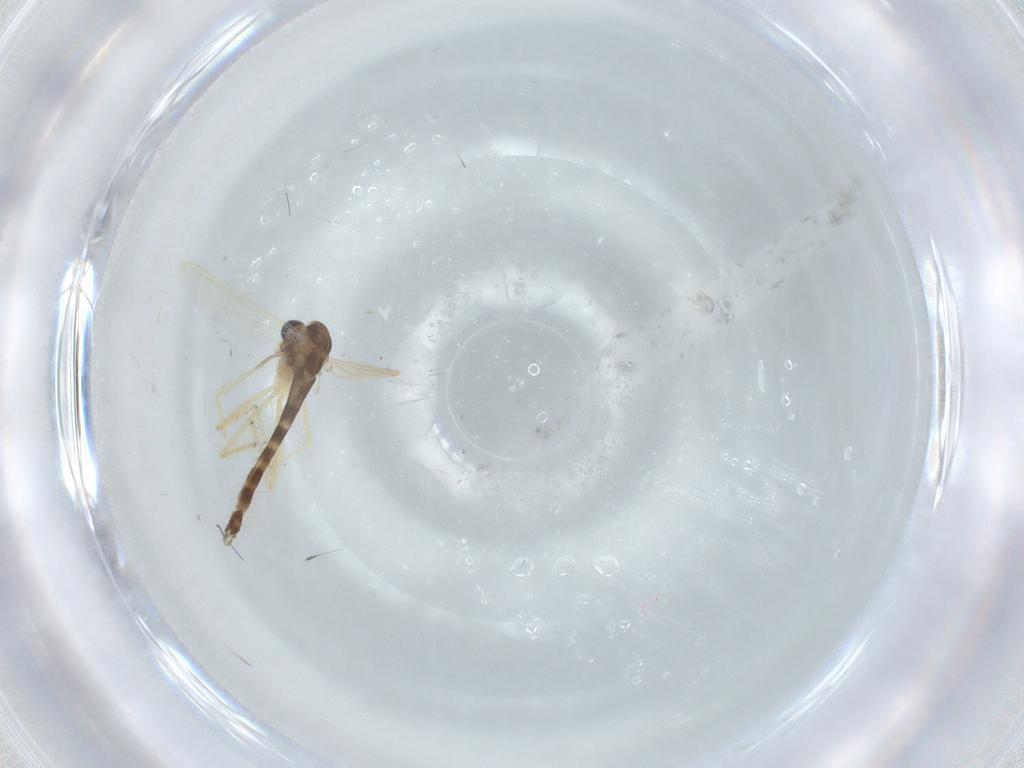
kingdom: Animalia
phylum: Arthropoda
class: Insecta
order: Diptera
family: Chironomidae
